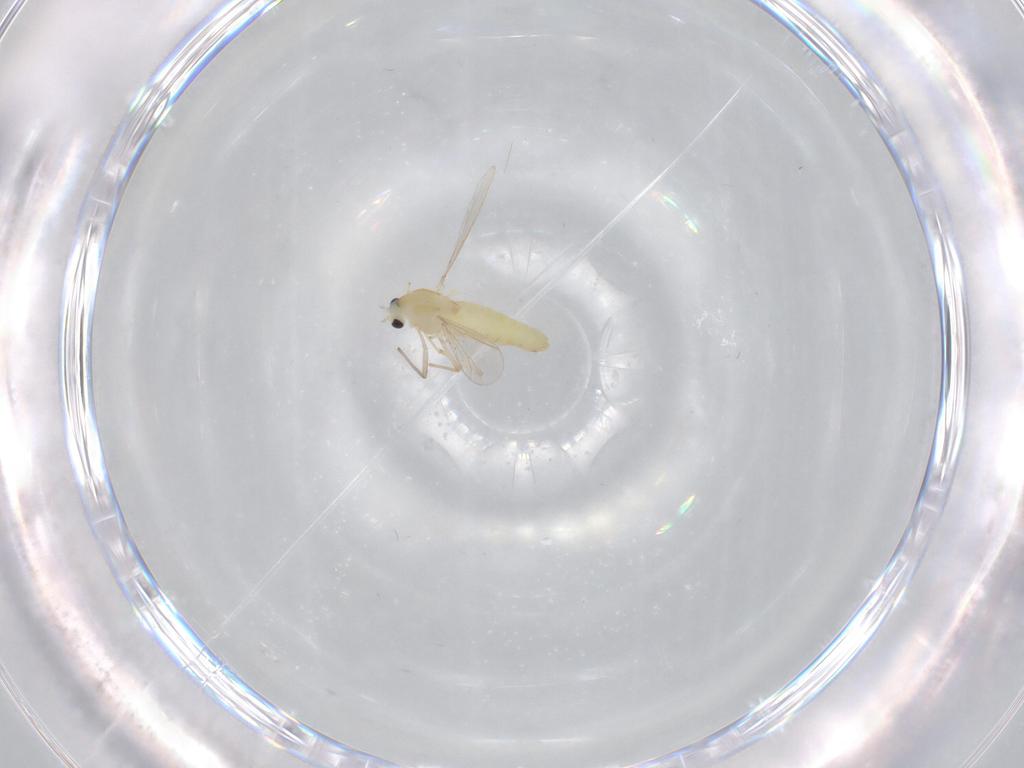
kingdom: Animalia
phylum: Arthropoda
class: Insecta
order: Diptera
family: Chironomidae
